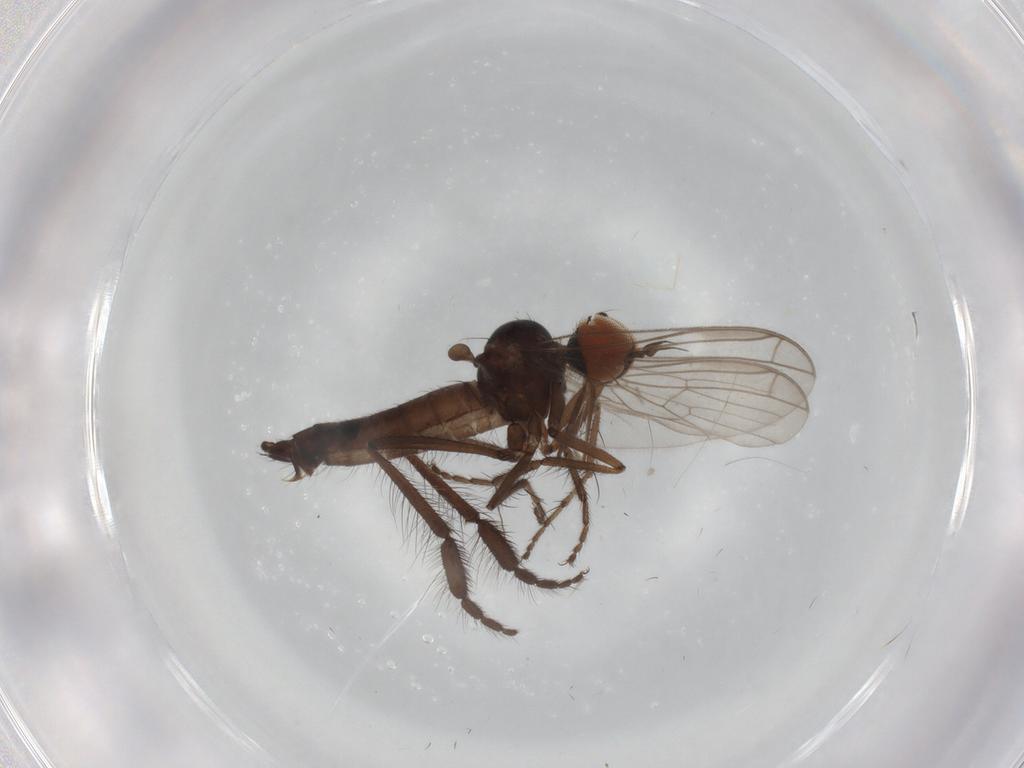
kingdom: Animalia
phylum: Arthropoda
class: Insecta
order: Diptera
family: Empididae
